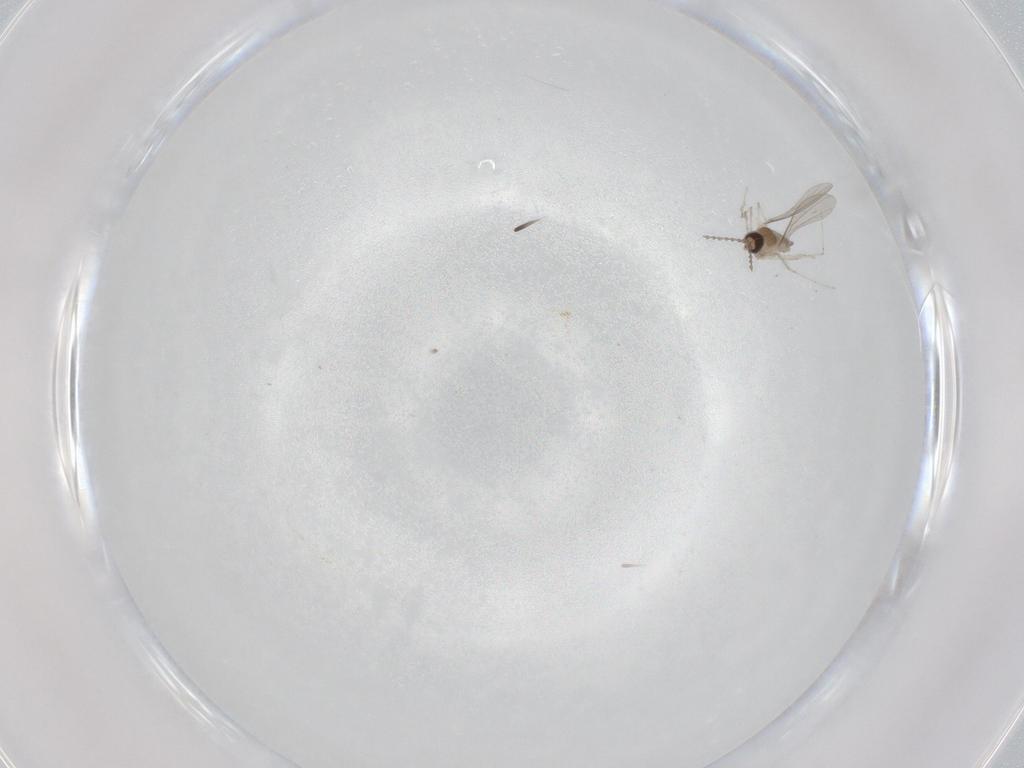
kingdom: Animalia
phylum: Arthropoda
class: Insecta
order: Diptera
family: Cecidomyiidae
